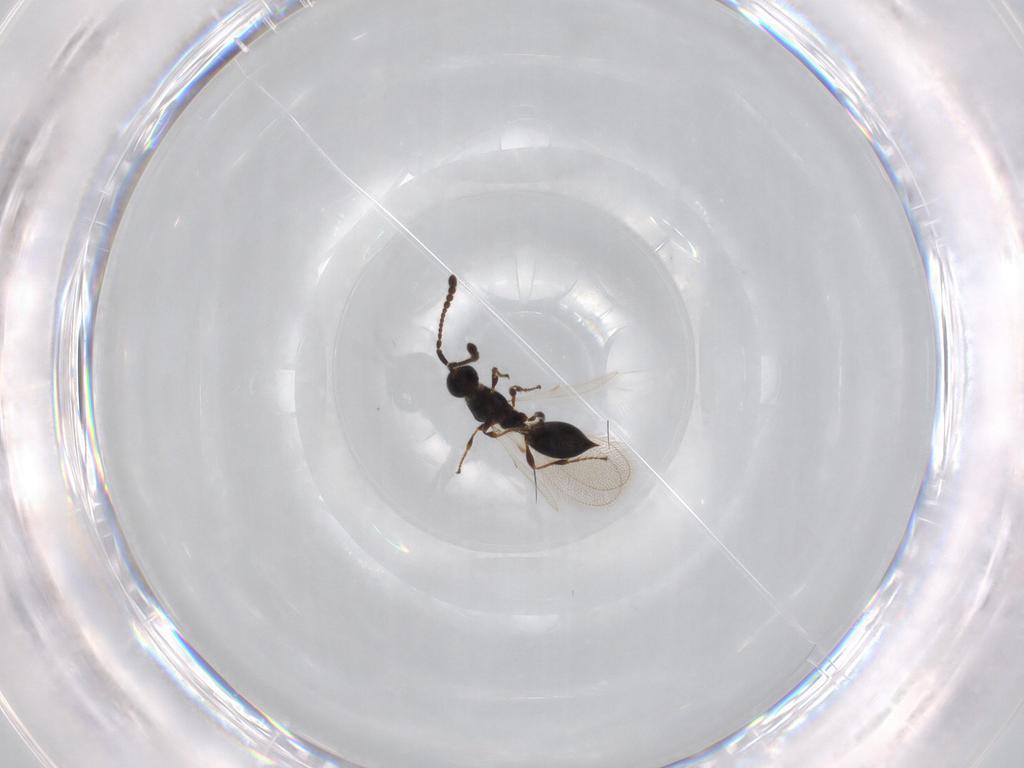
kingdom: Animalia
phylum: Arthropoda
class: Insecta
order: Hymenoptera
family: Diapriidae
